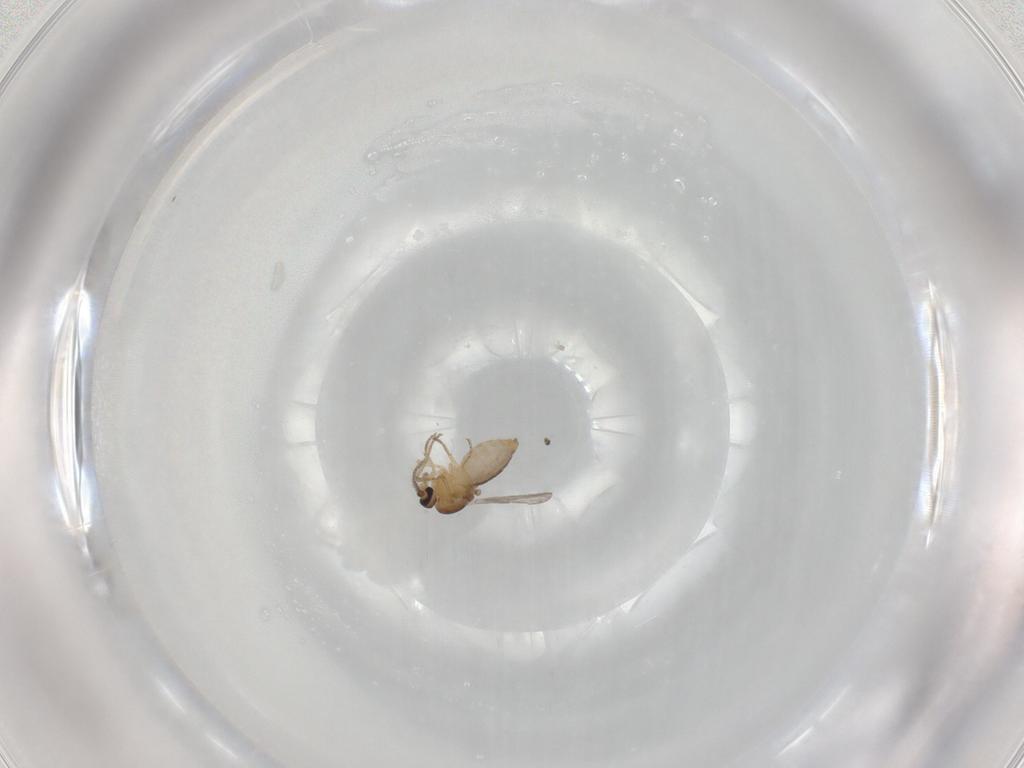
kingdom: Animalia
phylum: Arthropoda
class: Insecta
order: Diptera
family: Ceratopogonidae
